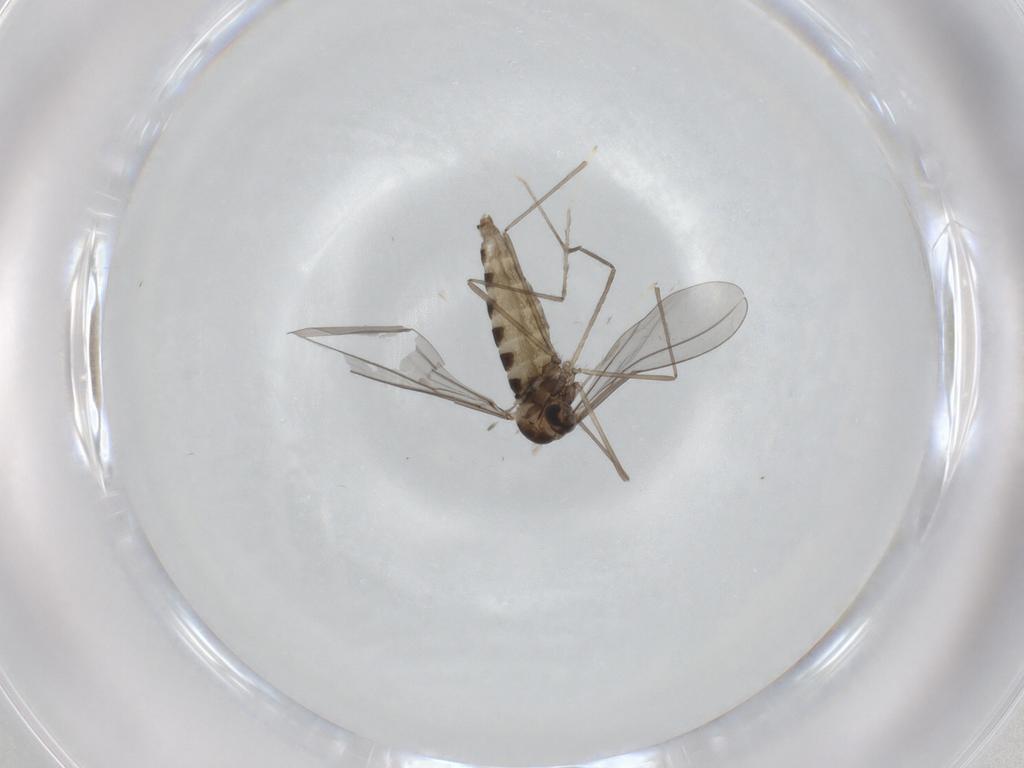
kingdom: Animalia
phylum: Arthropoda
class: Insecta
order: Diptera
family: Cecidomyiidae
